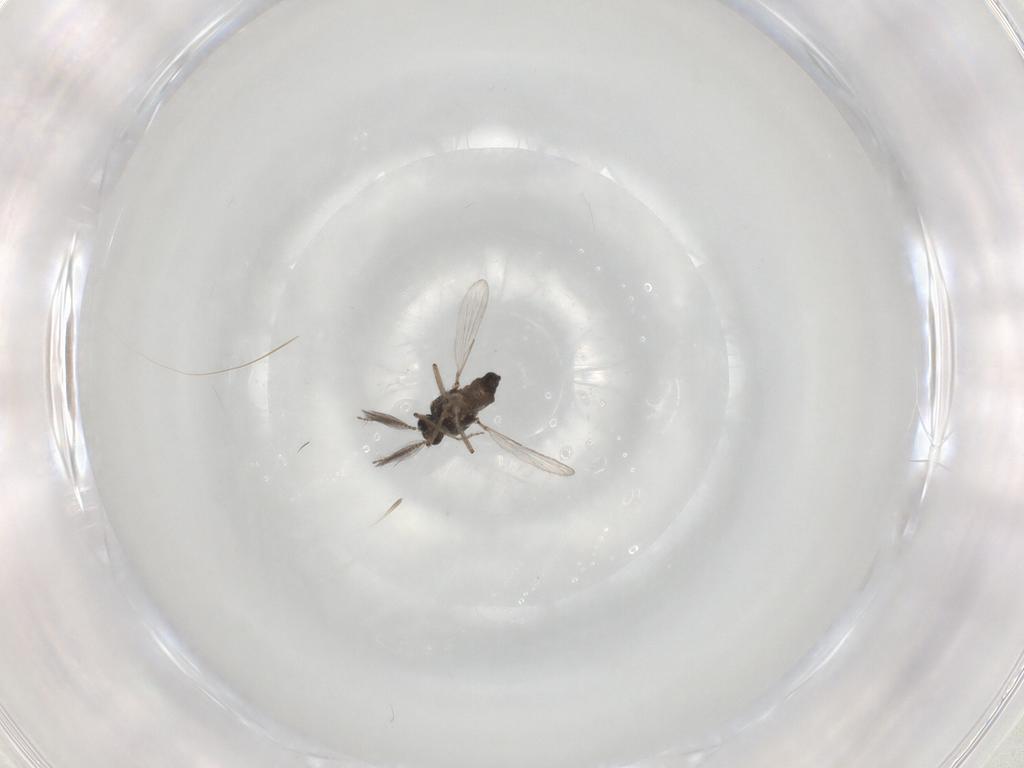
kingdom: Animalia
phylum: Arthropoda
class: Insecta
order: Diptera
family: Ceratopogonidae
